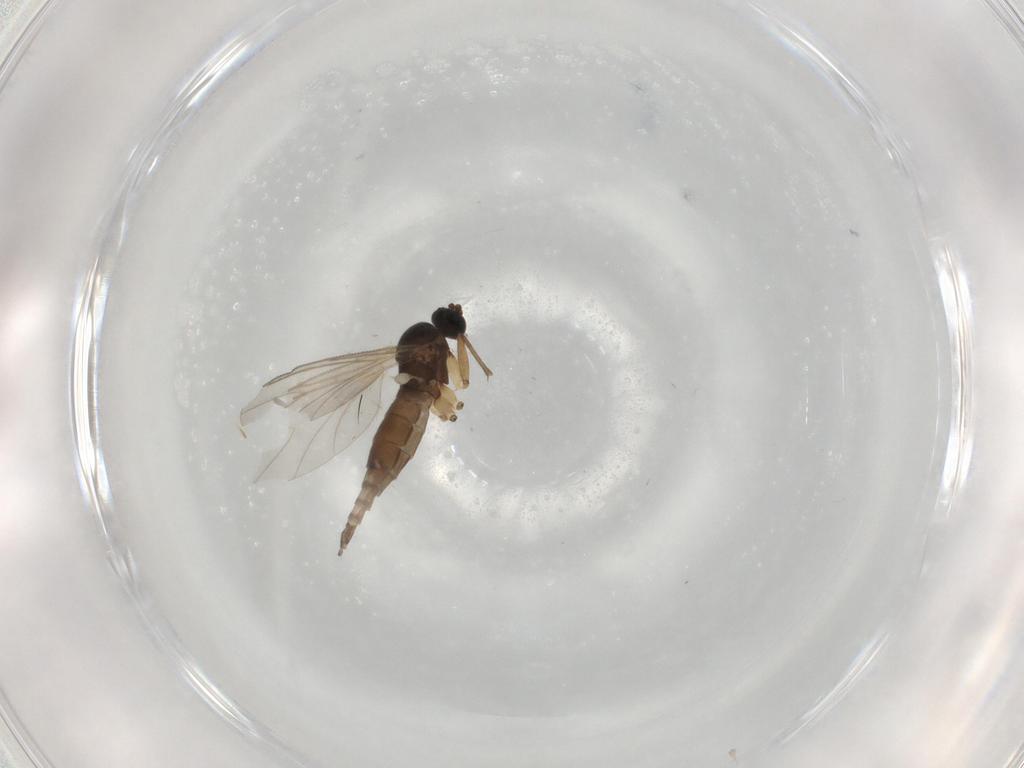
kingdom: Animalia
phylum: Arthropoda
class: Insecta
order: Diptera
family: Sciaridae
